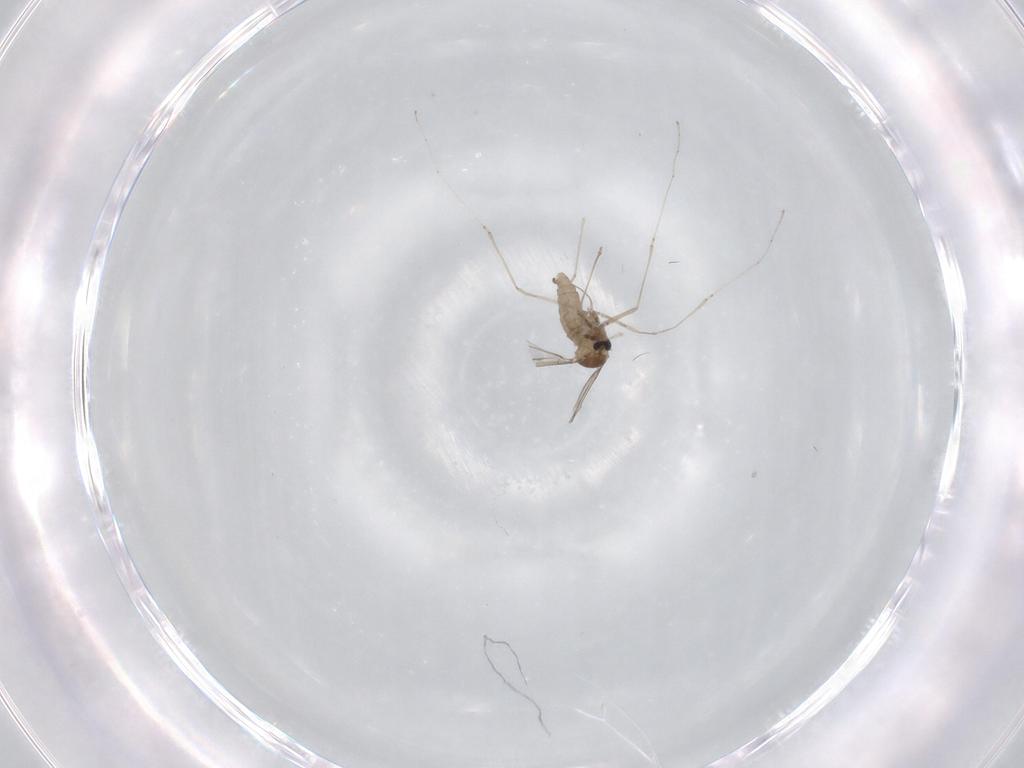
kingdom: Animalia
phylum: Arthropoda
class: Insecta
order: Diptera
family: Cecidomyiidae
